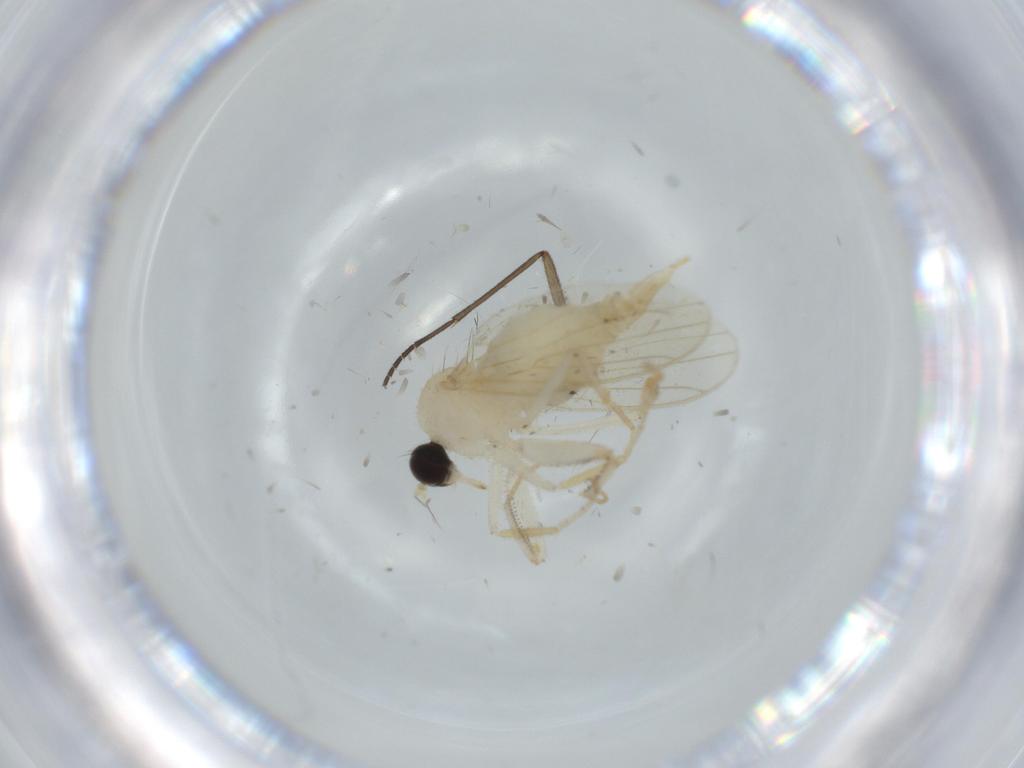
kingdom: Animalia
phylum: Arthropoda
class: Insecta
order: Diptera
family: Hybotidae
